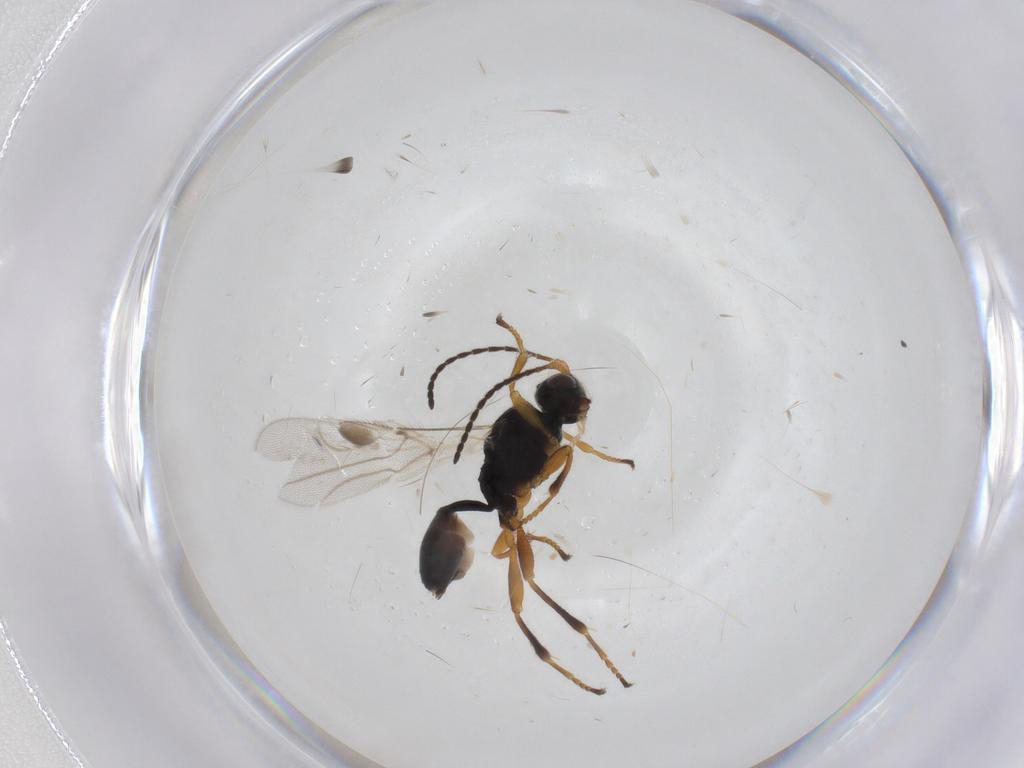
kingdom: Animalia
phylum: Arthropoda
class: Insecta
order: Hymenoptera
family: Braconidae
